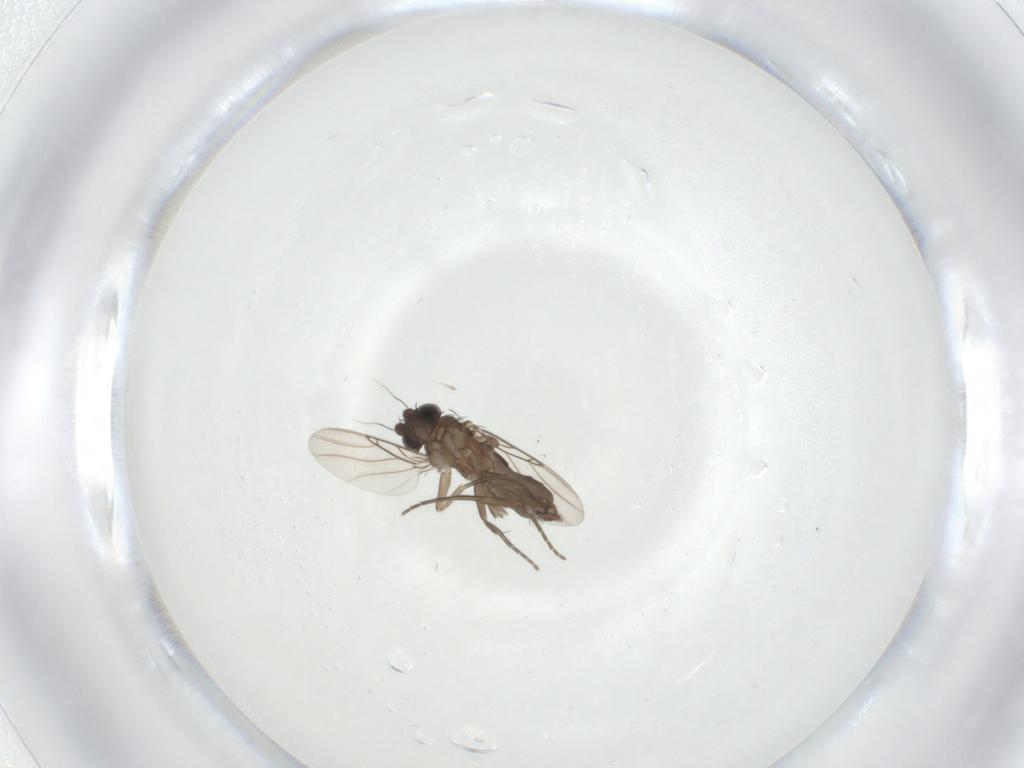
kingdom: Animalia
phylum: Arthropoda
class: Insecta
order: Diptera
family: Phoridae
